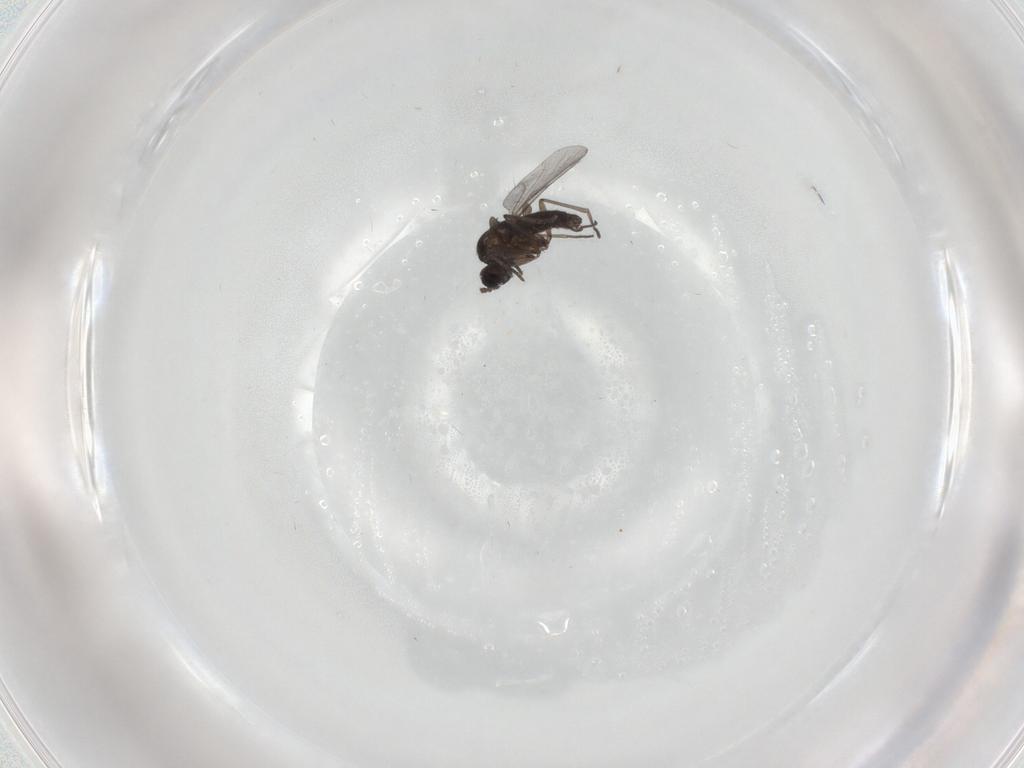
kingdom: Animalia
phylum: Arthropoda
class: Insecta
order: Diptera
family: Sciaridae
